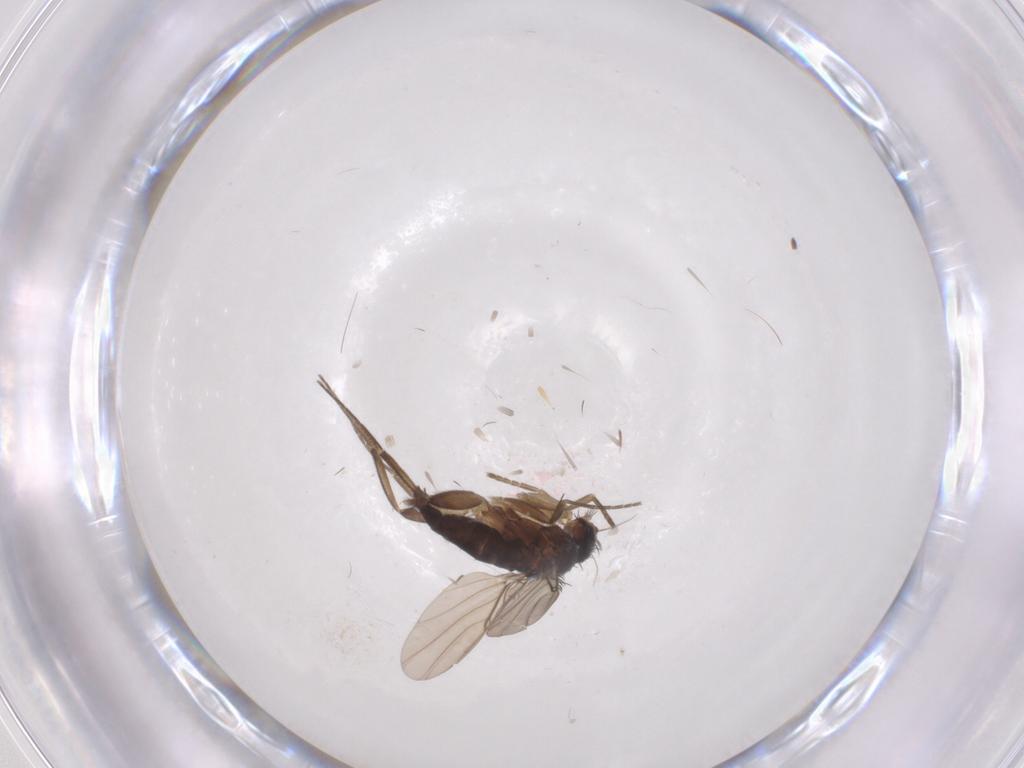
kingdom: Animalia
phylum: Arthropoda
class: Insecta
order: Diptera
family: Phoridae
